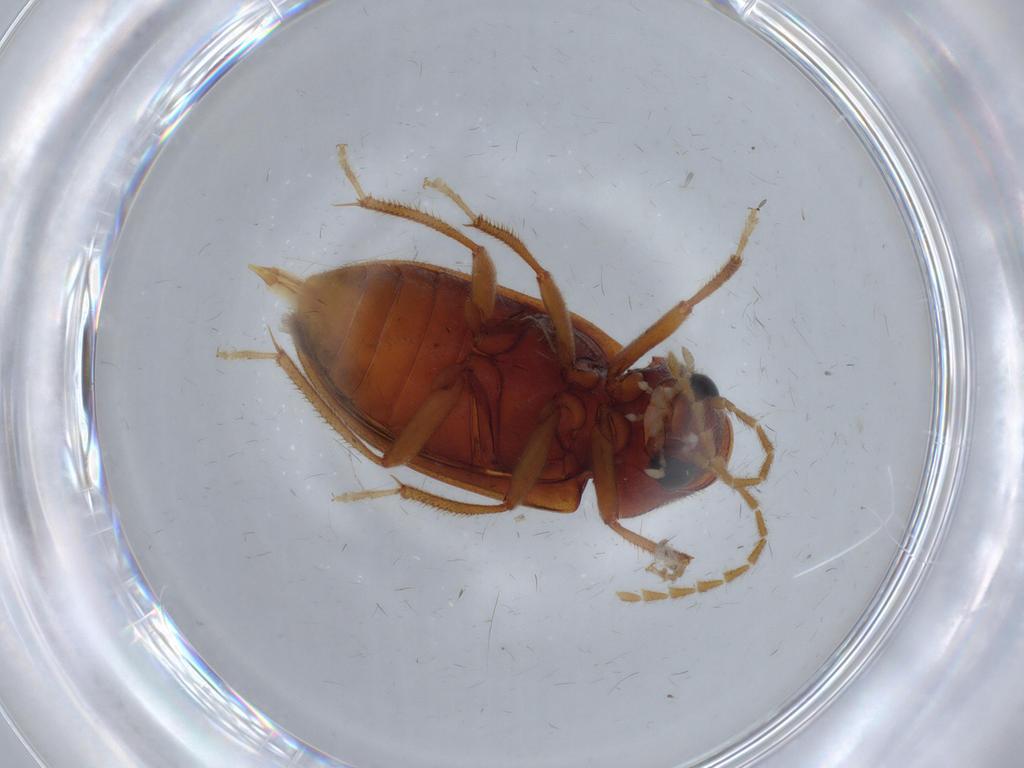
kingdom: Animalia
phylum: Arthropoda
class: Insecta
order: Coleoptera
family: Ptilodactylidae
